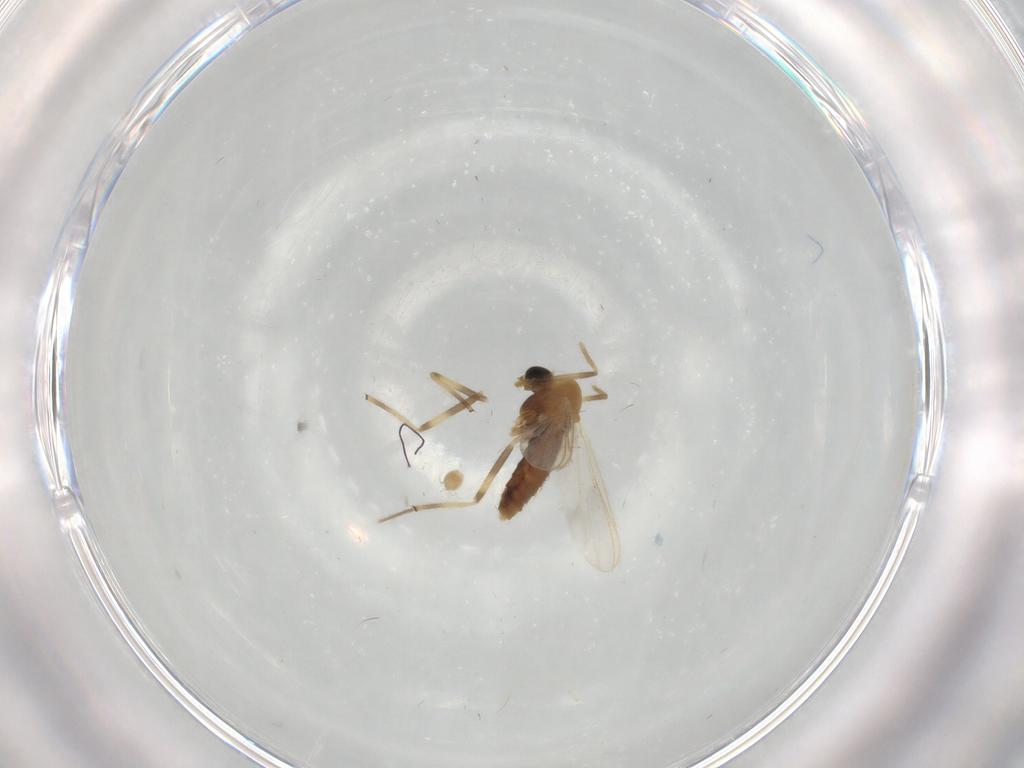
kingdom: Animalia
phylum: Arthropoda
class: Insecta
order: Diptera
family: Chironomidae
